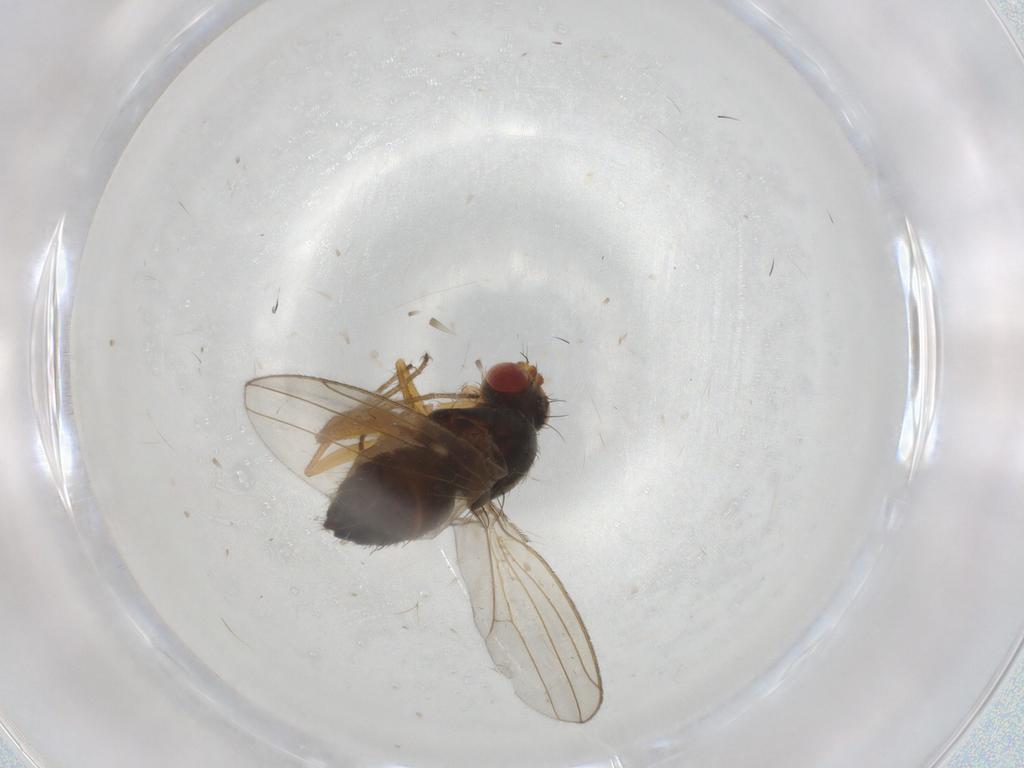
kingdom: Animalia
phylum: Arthropoda
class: Insecta
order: Diptera
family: Drosophilidae
